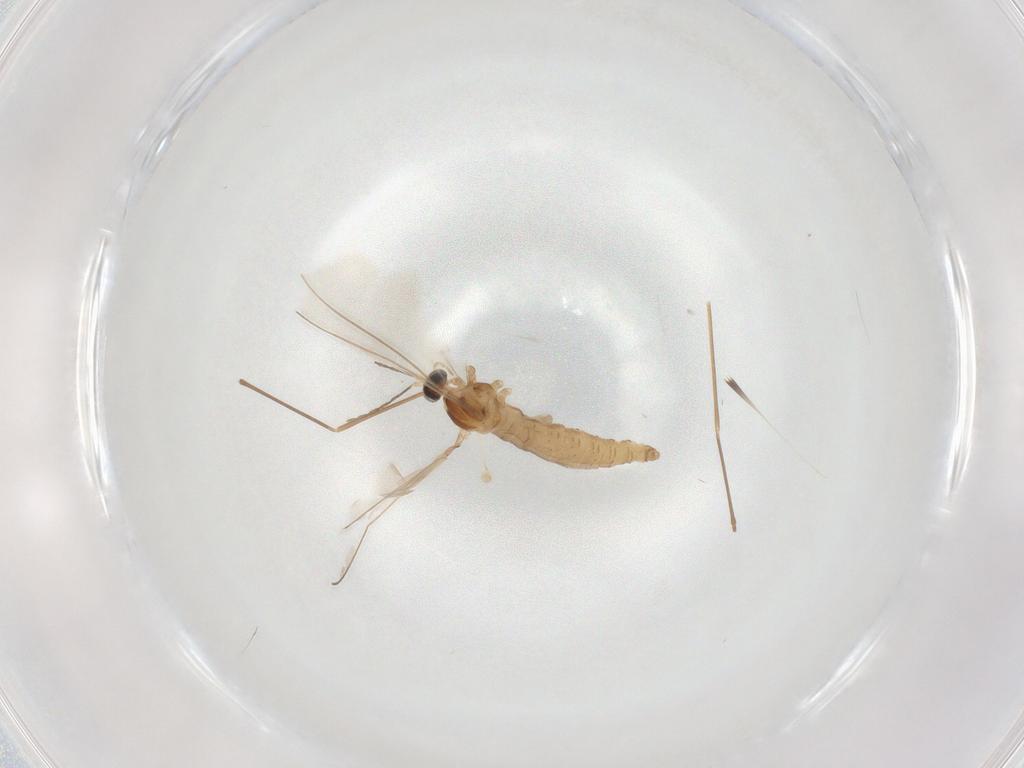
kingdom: Animalia
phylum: Arthropoda
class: Insecta
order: Diptera
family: Cecidomyiidae
